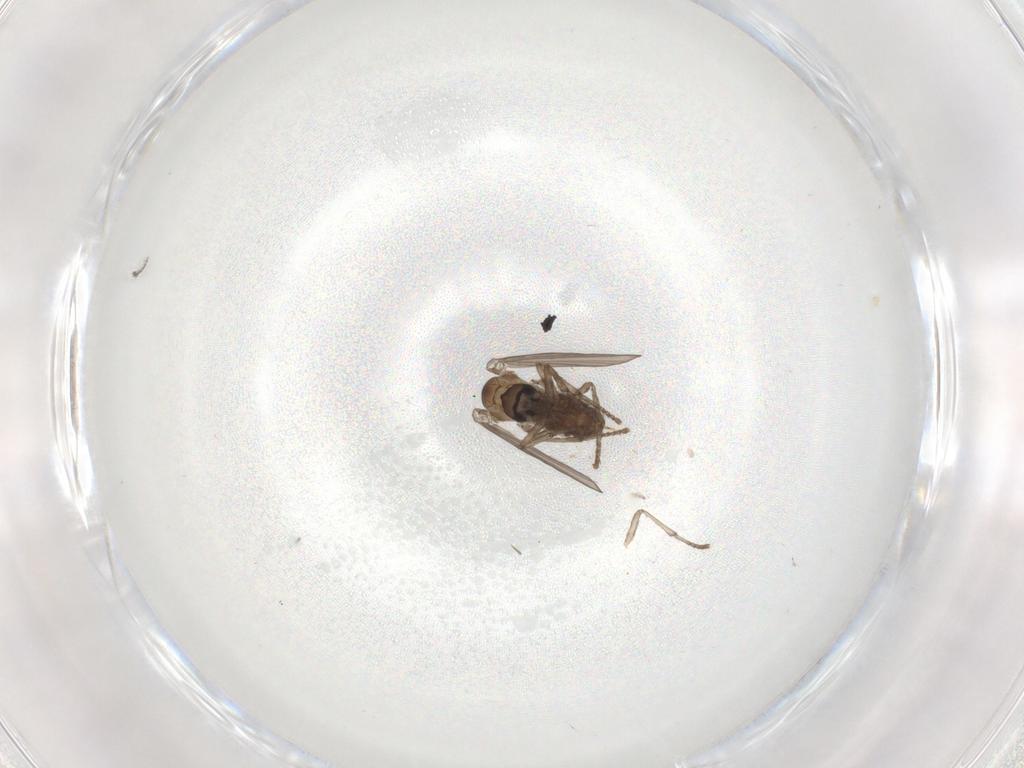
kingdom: Animalia
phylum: Arthropoda
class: Insecta
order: Diptera
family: Psychodidae
